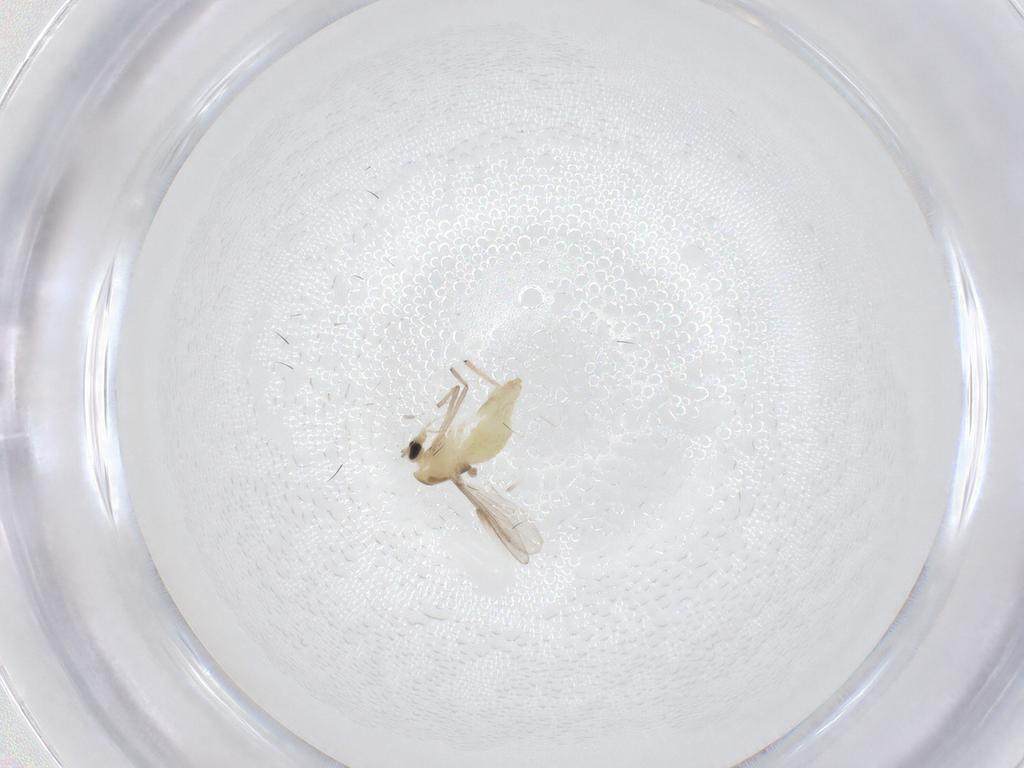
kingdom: Animalia
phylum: Arthropoda
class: Insecta
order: Diptera
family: Chironomidae
